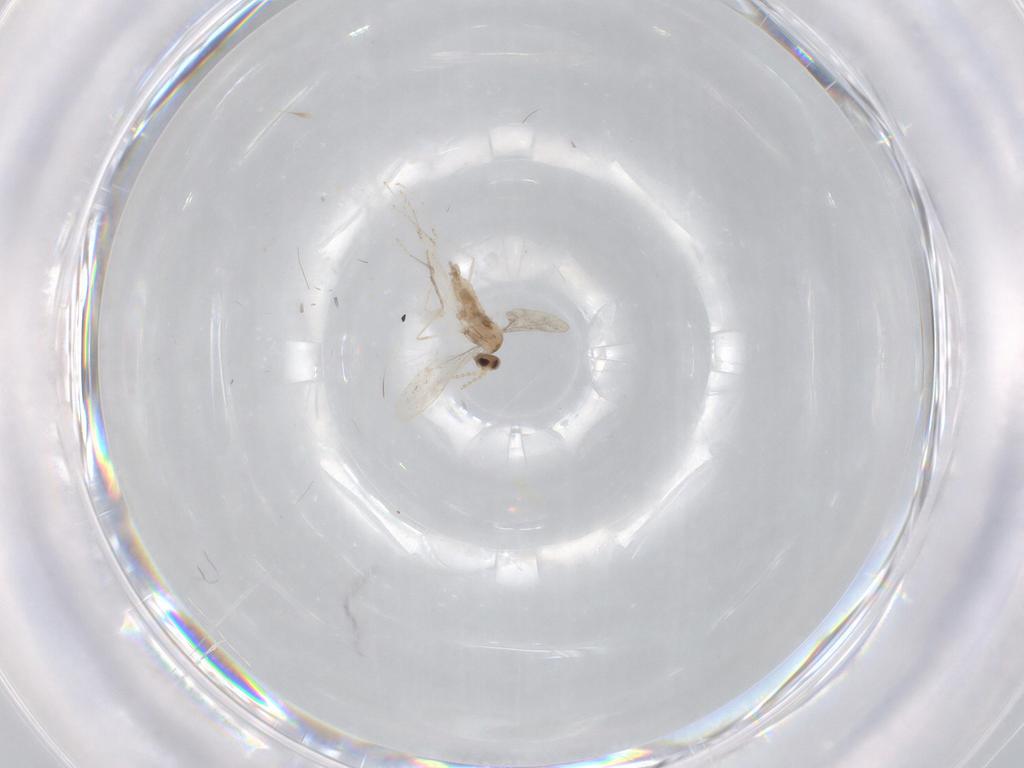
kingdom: Animalia
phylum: Arthropoda
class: Insecta
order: Diptera
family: Cecidomyiidae
